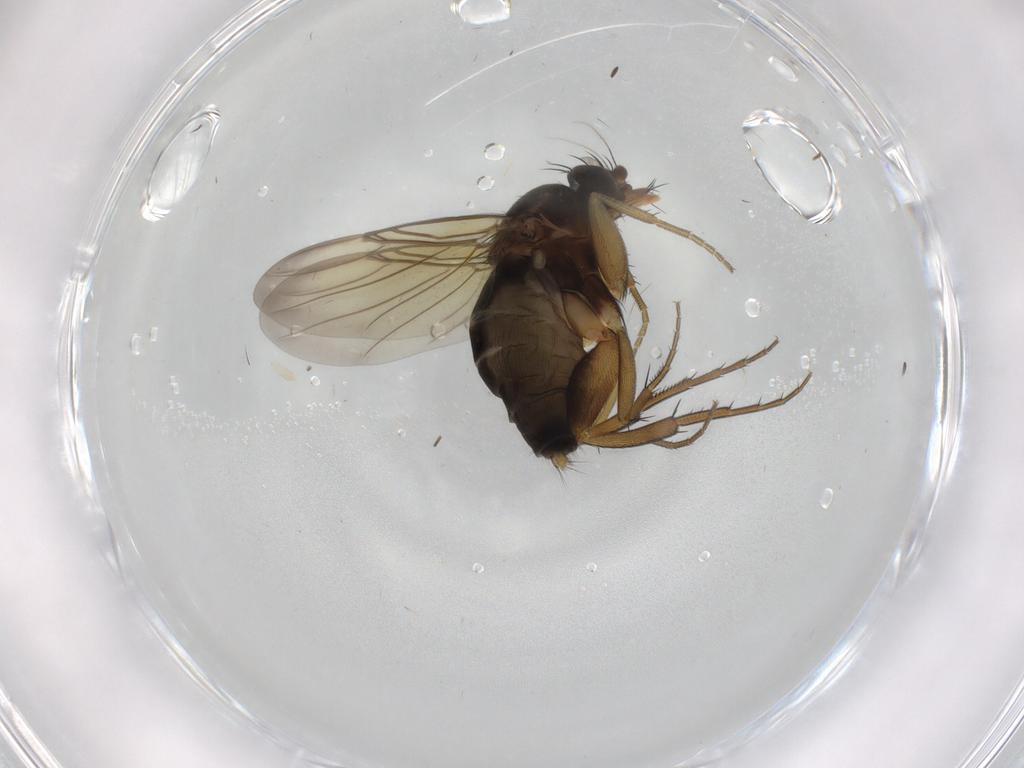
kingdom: Animalia
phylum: Arthropoda
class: Insecta
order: Diptera
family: Phoridae
